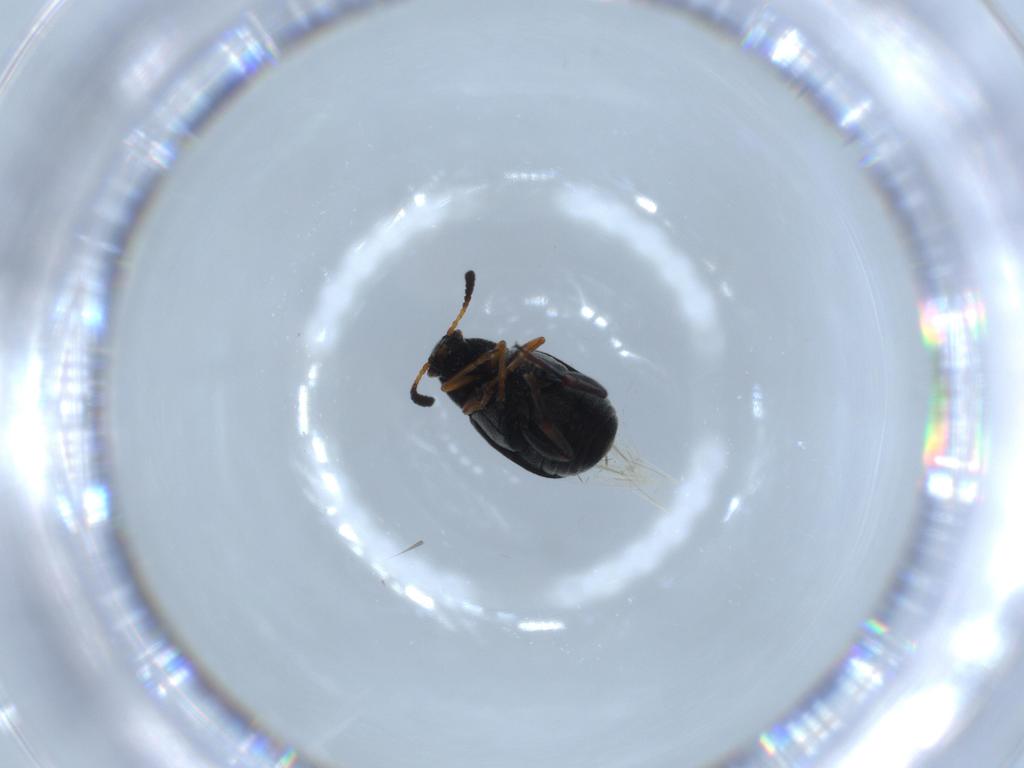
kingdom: Animalia
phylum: Arthropoda
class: Insecta
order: Coleoptera
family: Chrysomelidae
